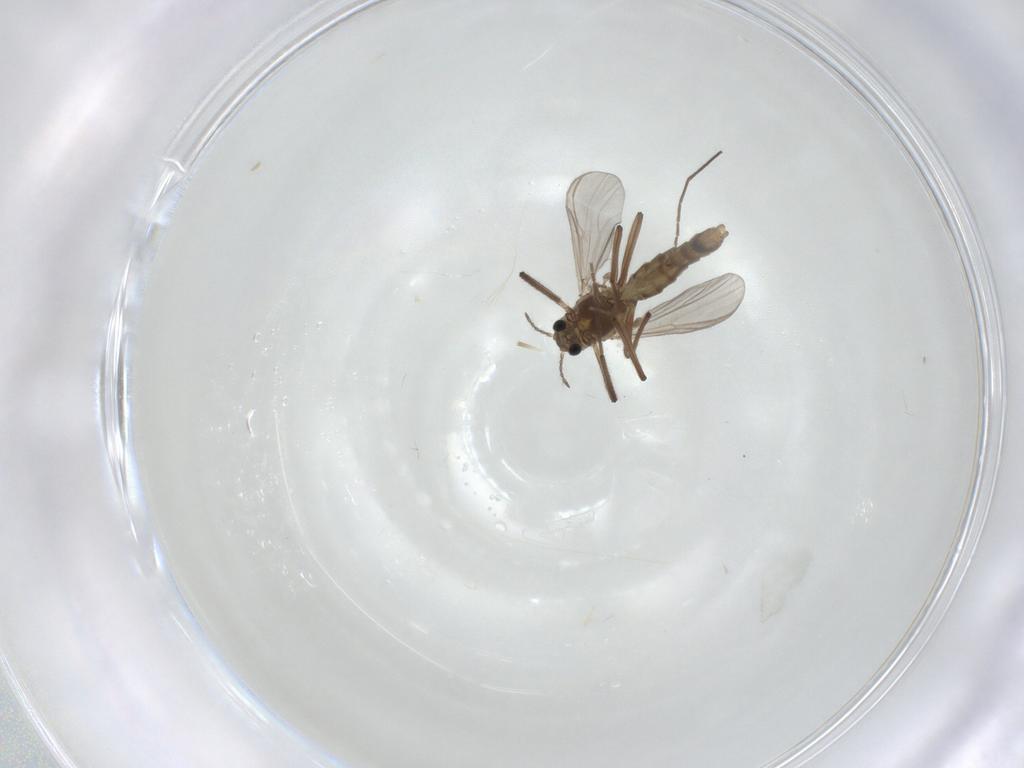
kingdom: Animalia
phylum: Arthropoda
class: Insecta
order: Diptera
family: Chironomidae
